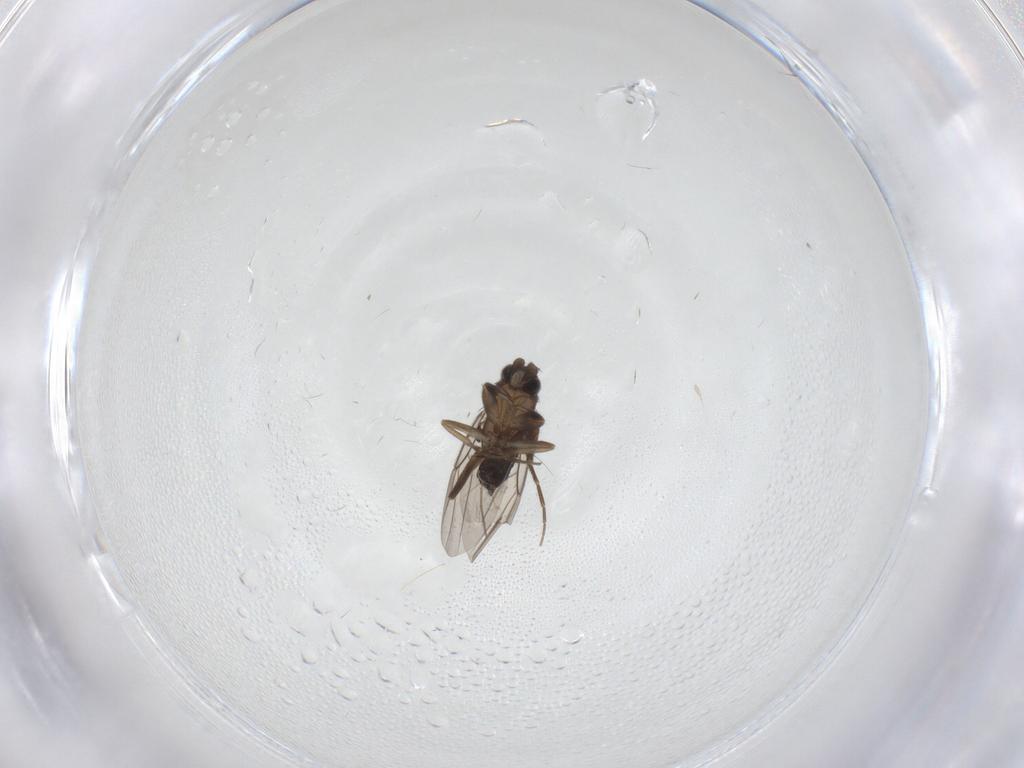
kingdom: Animalia
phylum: Arthropoda
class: Insecta
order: Diptera
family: Phoridae
